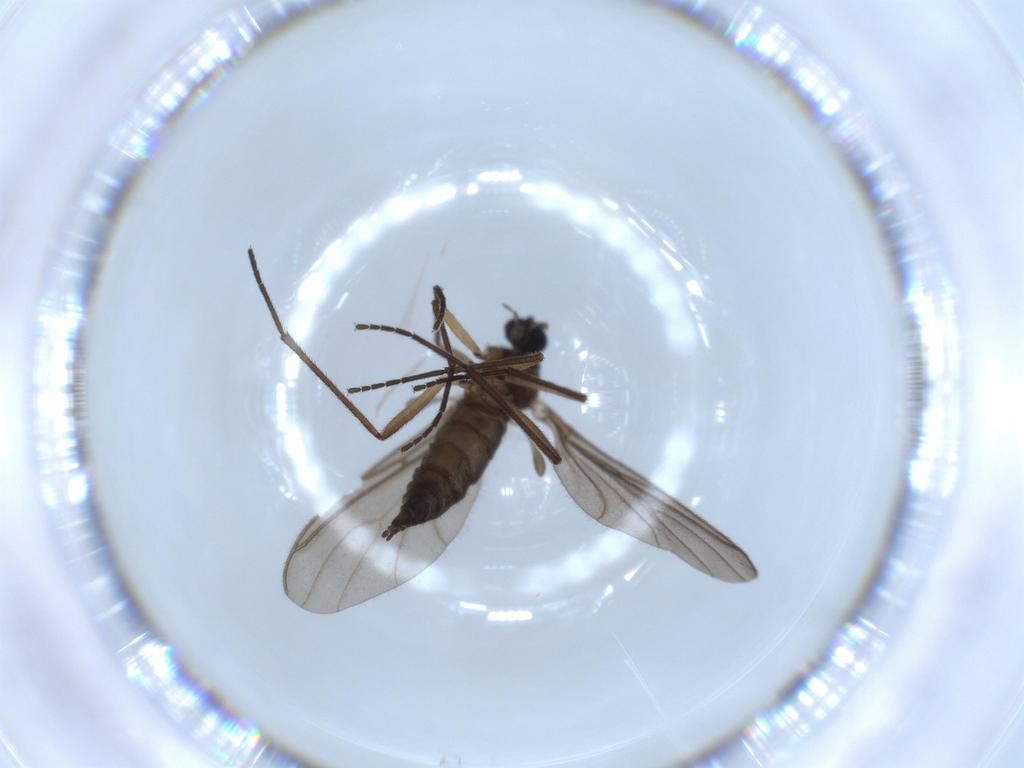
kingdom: Animalia
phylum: Arthropoda
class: Insecta
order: Diptera
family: Sciaridae
